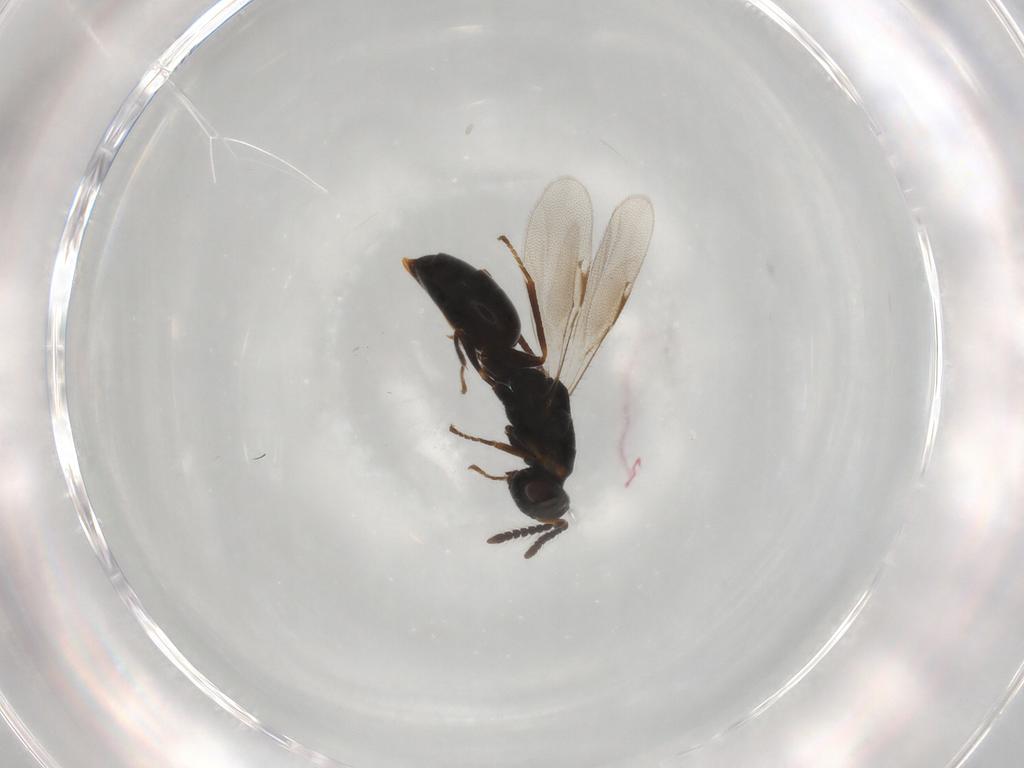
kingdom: Animalia
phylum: Arthropoda
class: Insecta
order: Hymenoptera
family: Eurytomidae
